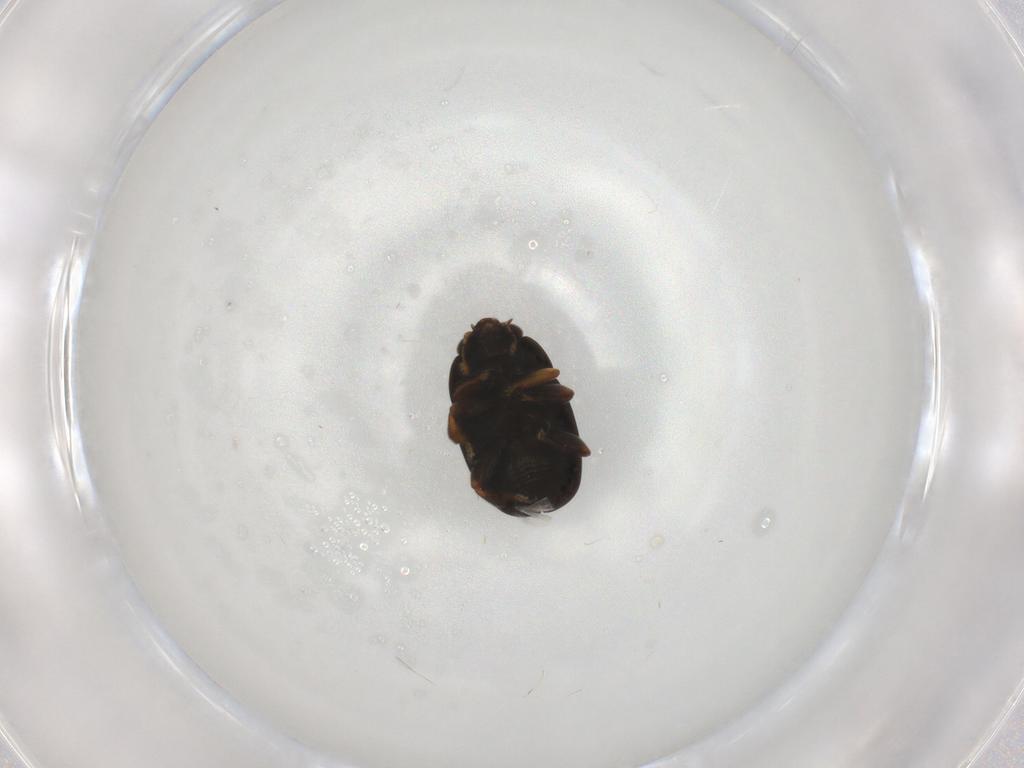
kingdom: Animalia
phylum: Arthropoda
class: Insecta
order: Coleoptera
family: Nitidulidae
